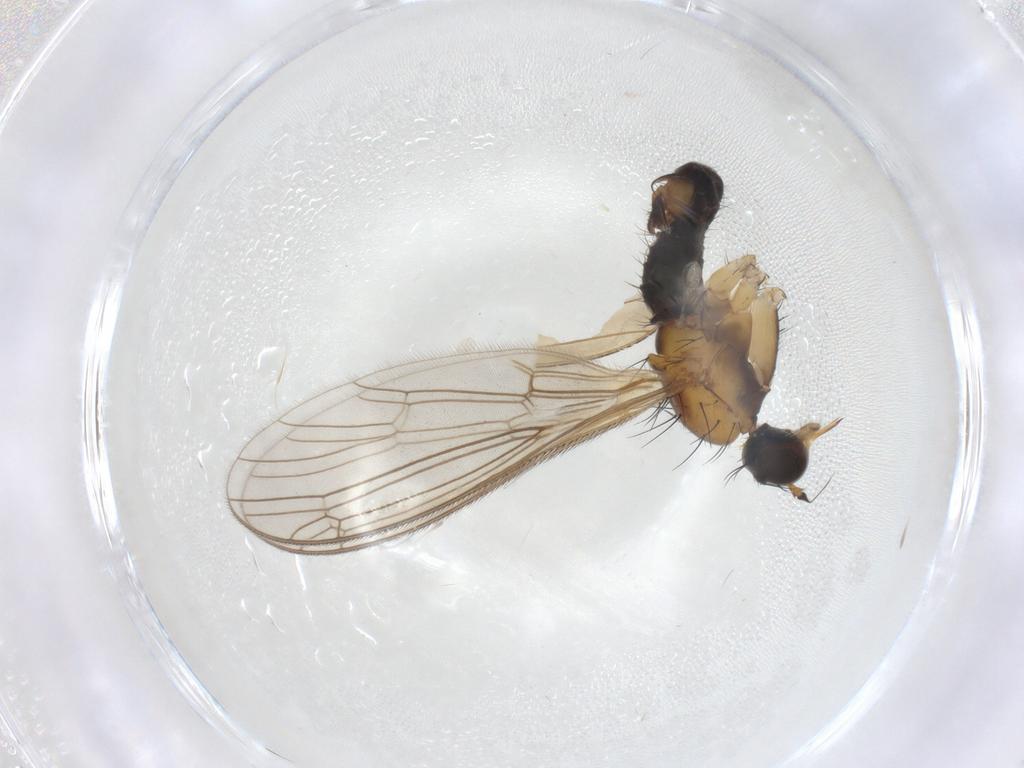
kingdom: Animalia
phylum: Arthropoda
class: Insecta
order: Diptera
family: Empididae
